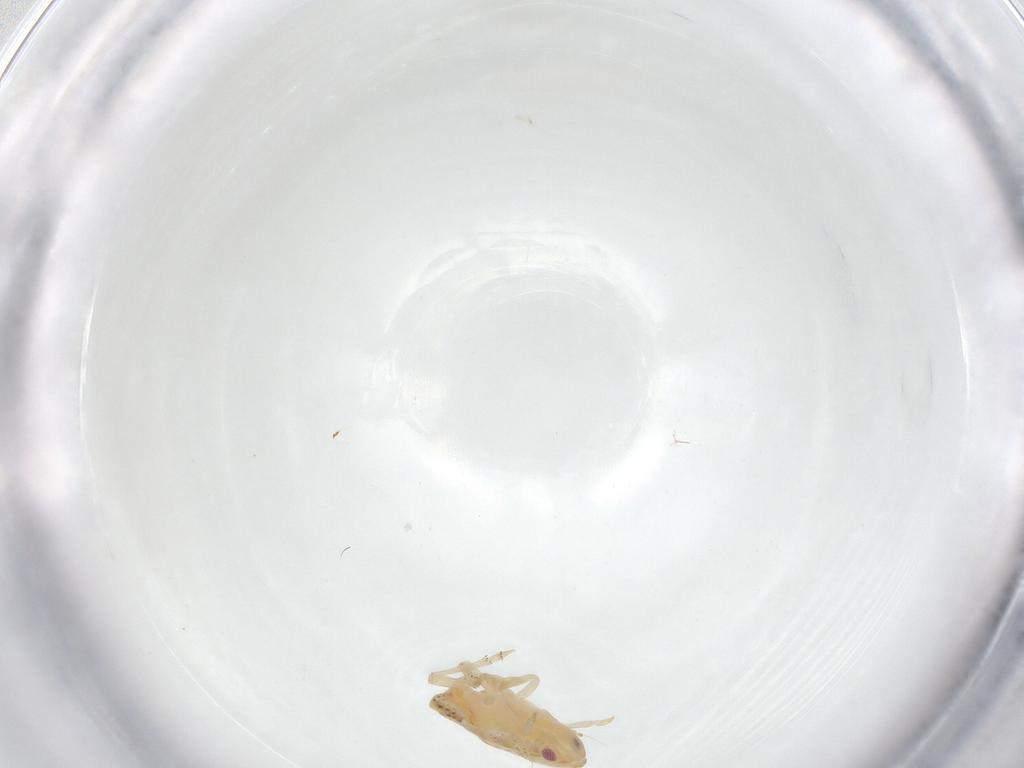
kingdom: Animalia
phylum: Arthropoda
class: Insecta
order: Hemiptera
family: Flatidae
